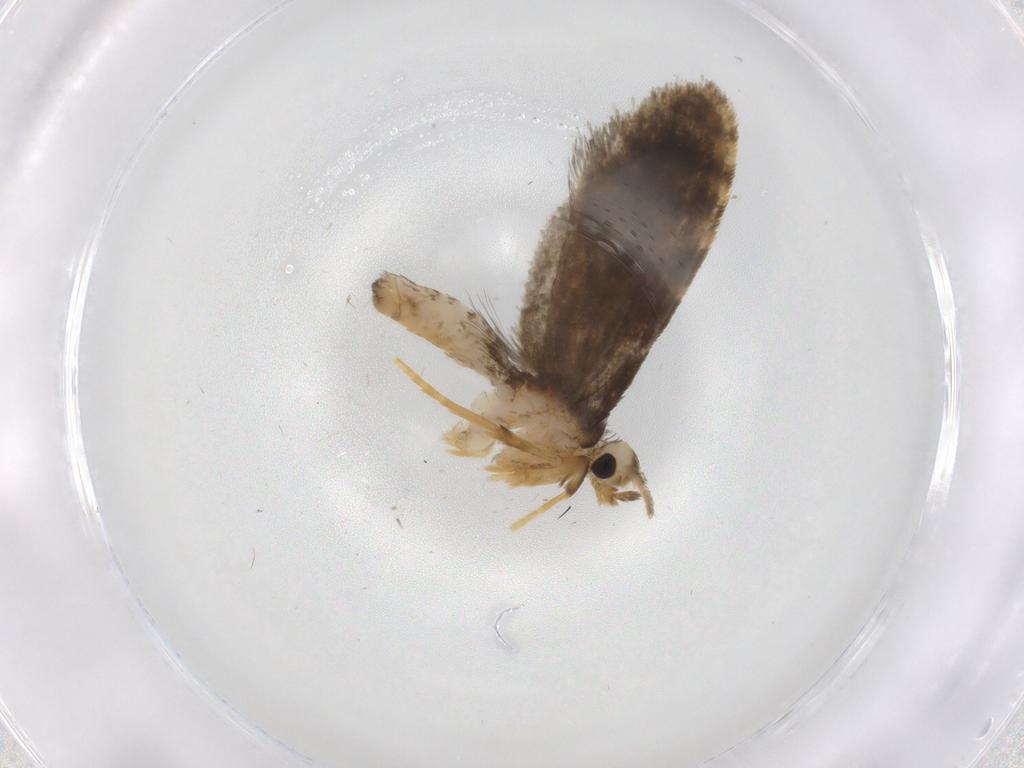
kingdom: Animalia
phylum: Arthropoda
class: Insecta
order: Lepidoptera
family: Psychidae
